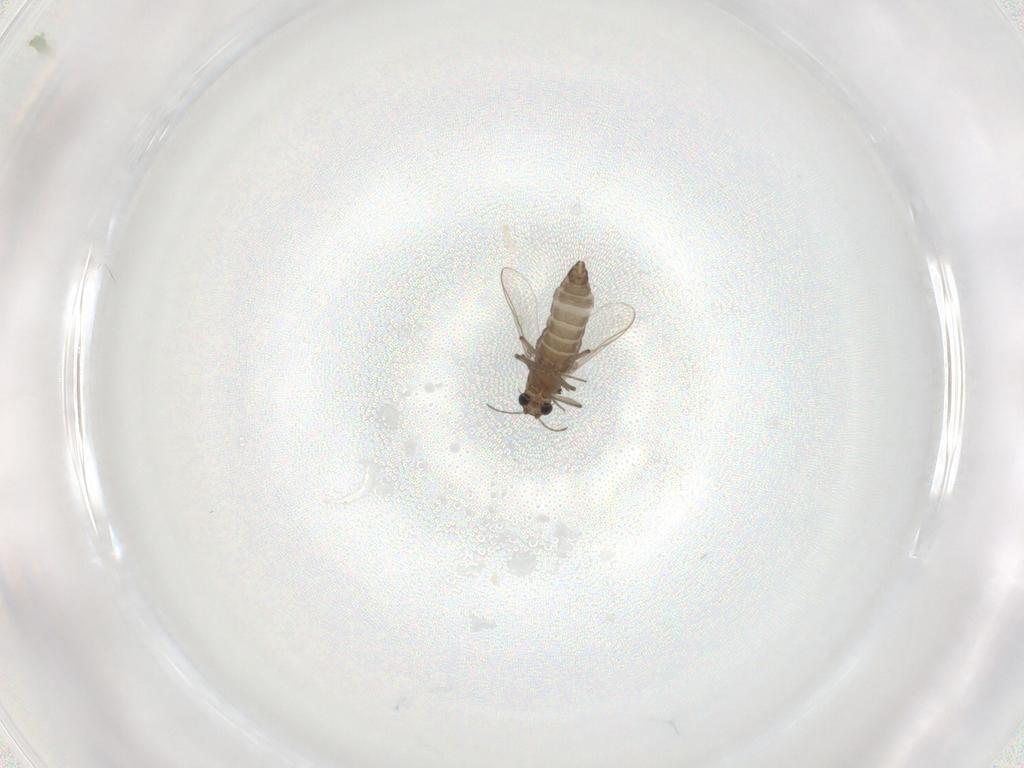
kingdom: Animalia
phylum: Arthropoda
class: Insecta
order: Diptera
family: Chironomidae
